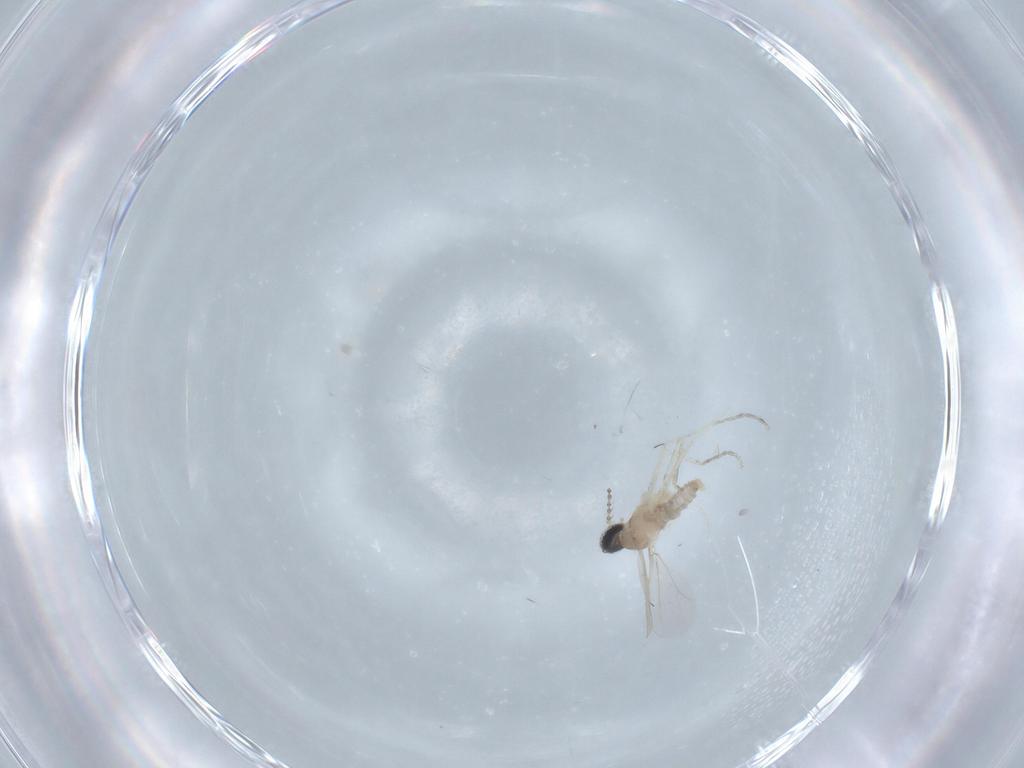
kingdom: Animalia
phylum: Arthropoda
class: Insecta
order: Diptera
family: Cecidomyiidae
